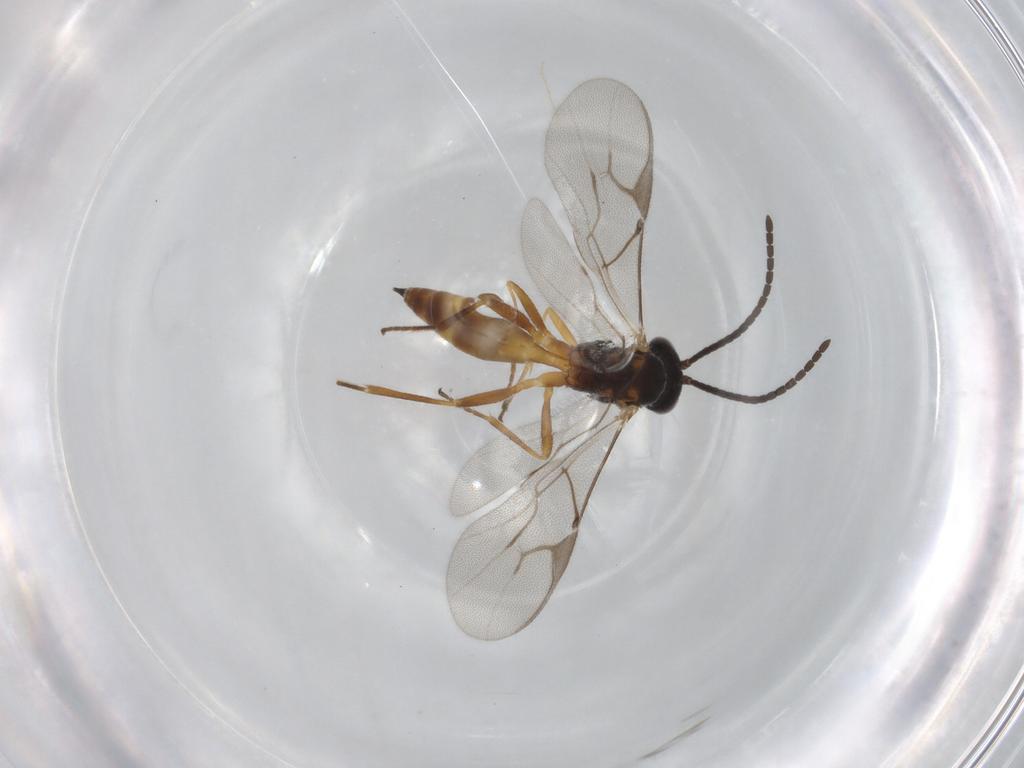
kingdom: Animalia
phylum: Arthropoda
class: Insecta
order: Hymenoptera
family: Braconidae
